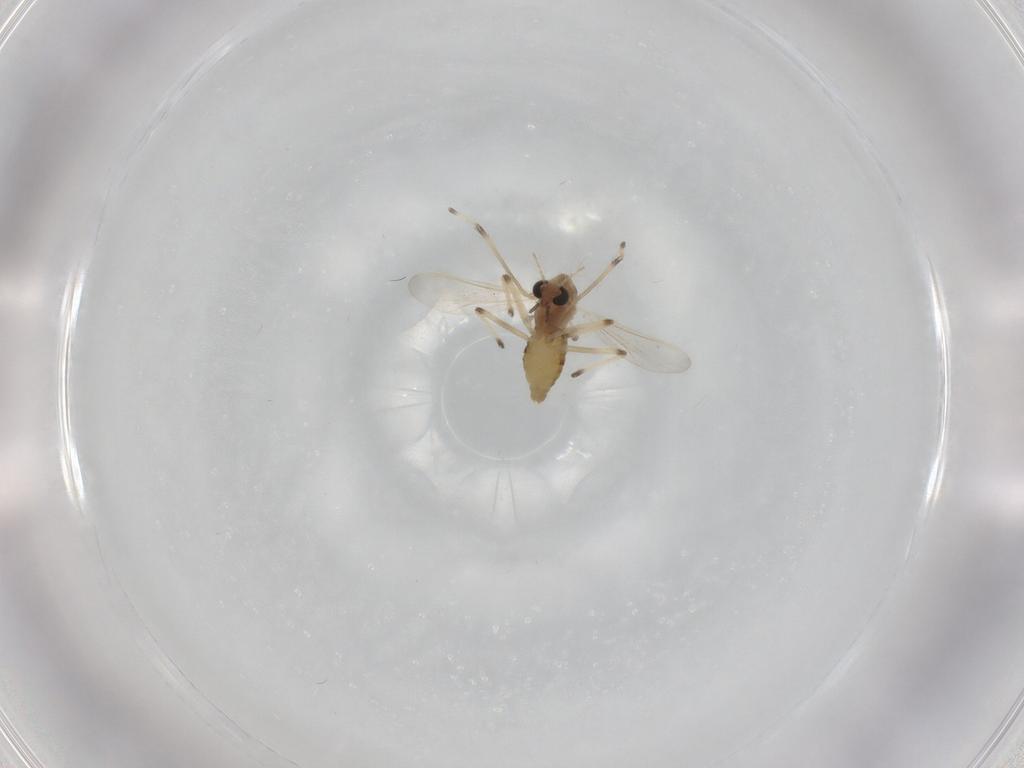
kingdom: Animalia
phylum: Arthropoda
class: Insecta
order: Diptera
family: Chironomidae
